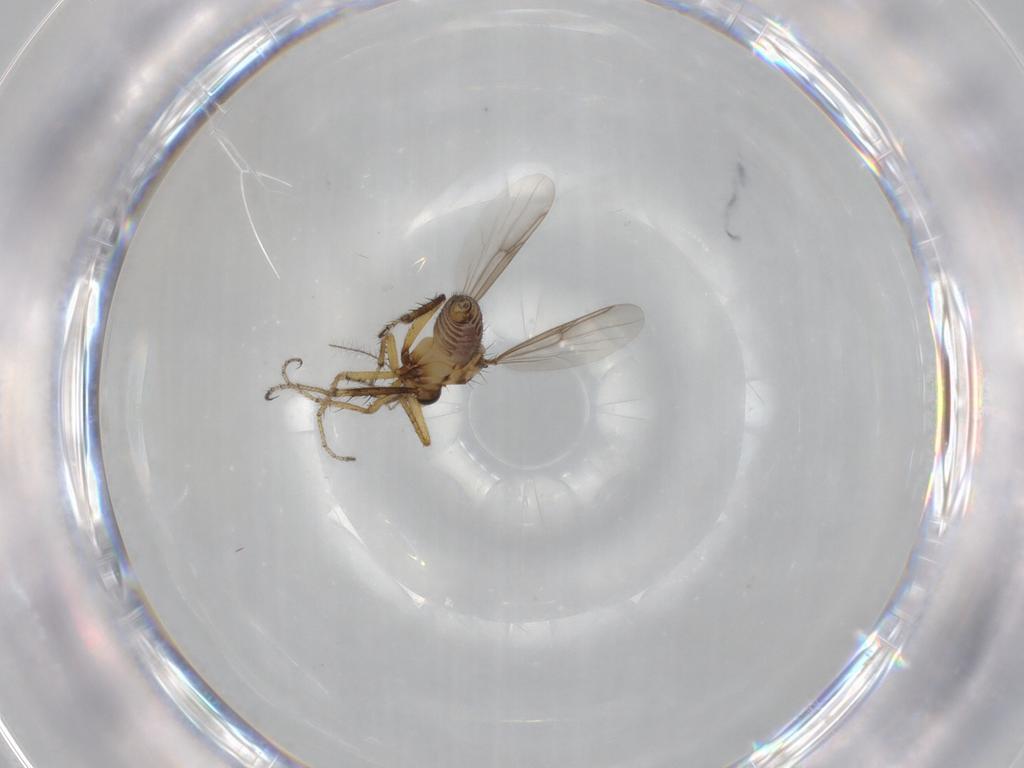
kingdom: Animalia
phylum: Arthropoda
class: Insecta
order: Diptera
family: Ceratopogonidae
